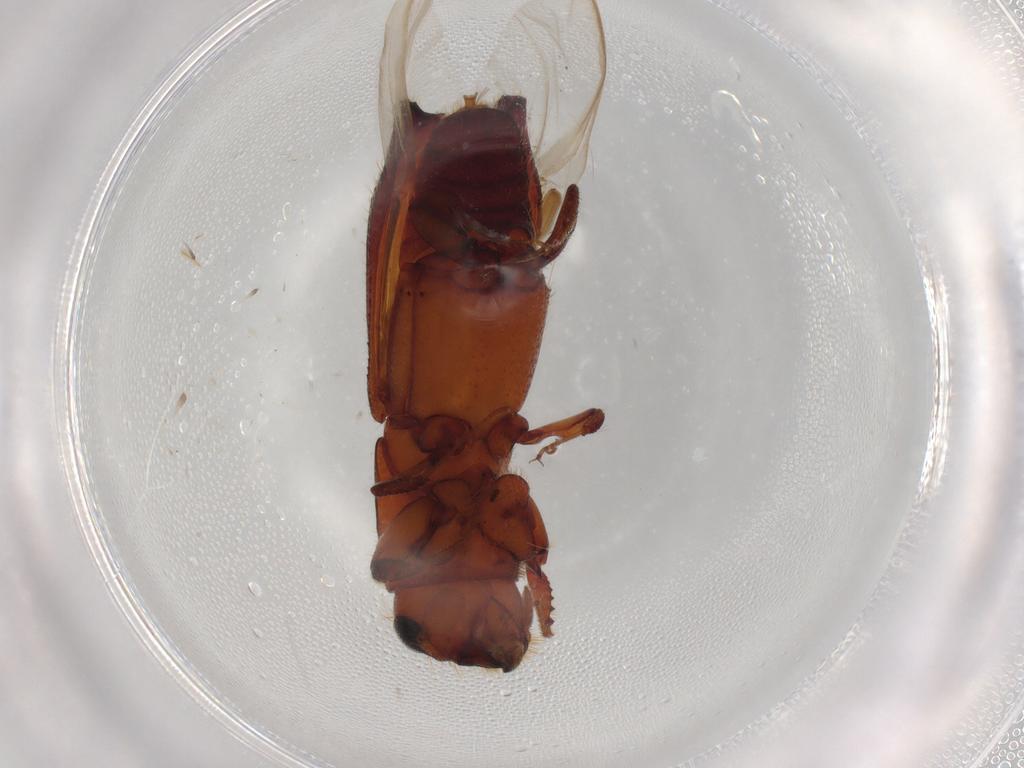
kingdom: Animalia
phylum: Arthropoda
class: Insecta
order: Coleoptera
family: Curculionidae
